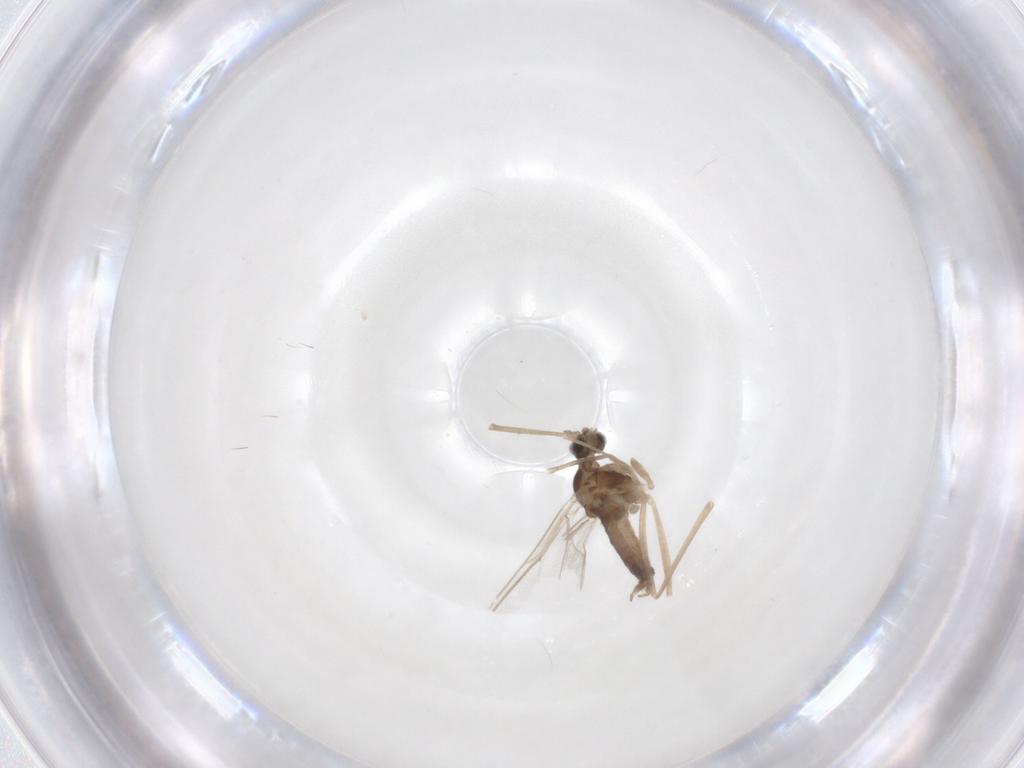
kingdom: Animalia
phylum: Arthropoda
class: Insecta
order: Diptera
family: Cecidomyiidae
